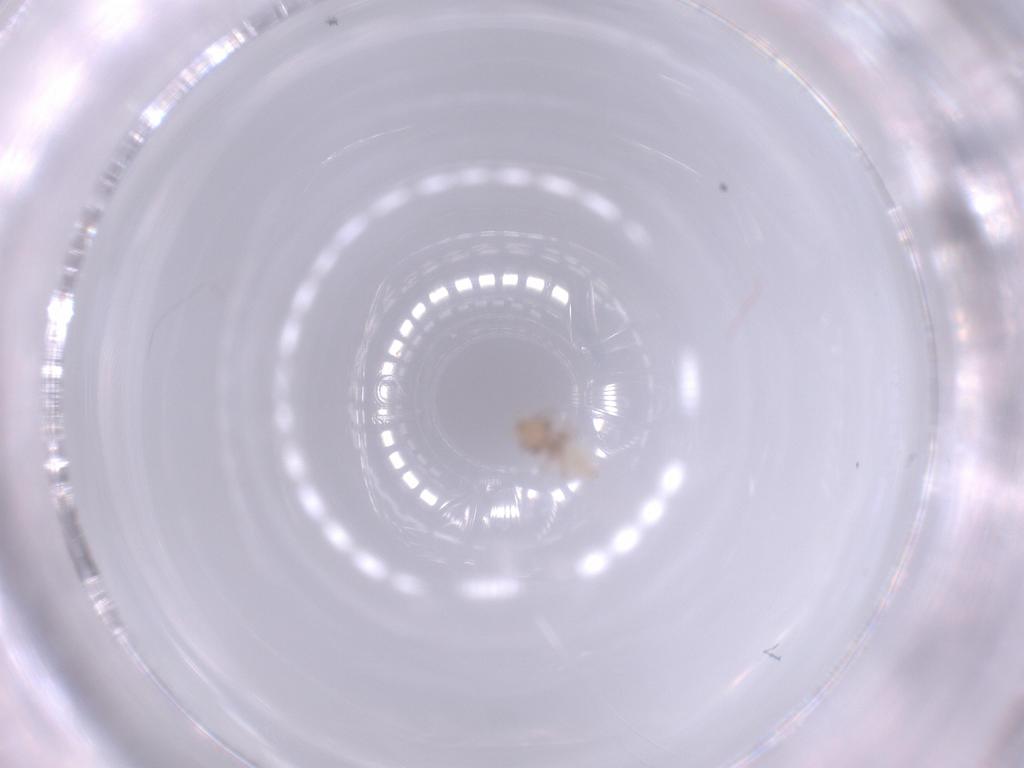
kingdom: Animalia
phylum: Arthropoda
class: Insecta
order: Psocodea
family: Lepidopsocidae
